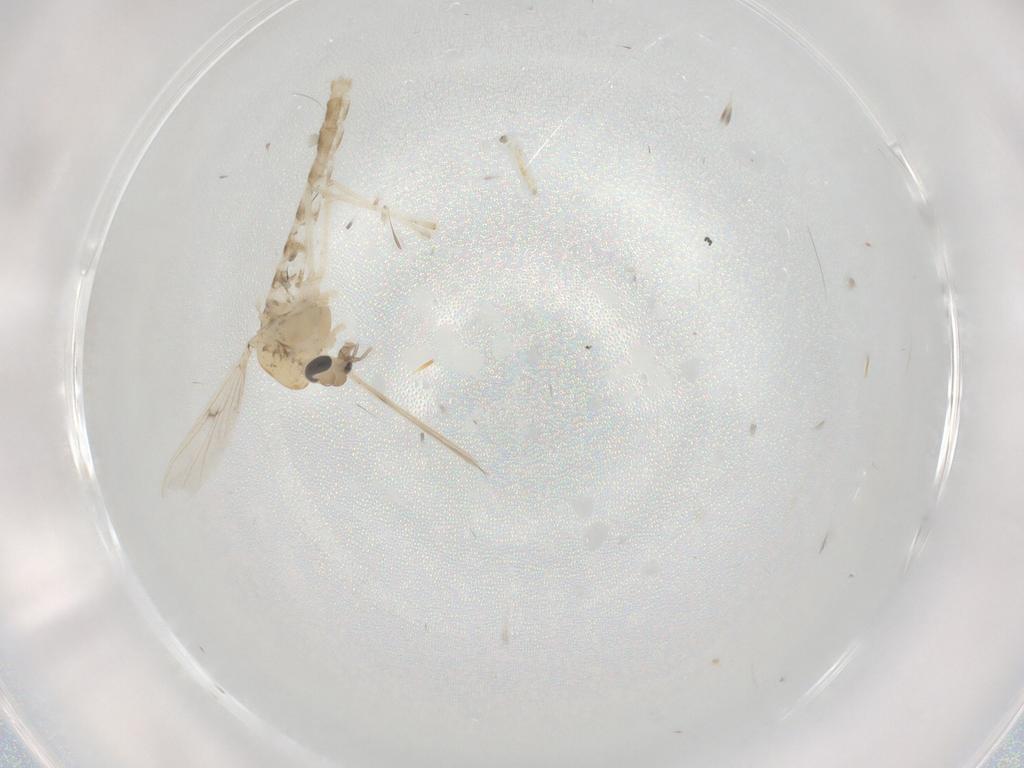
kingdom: Animalia
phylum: Arthropoda
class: Insecta
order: Diptera
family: Chironomidae
